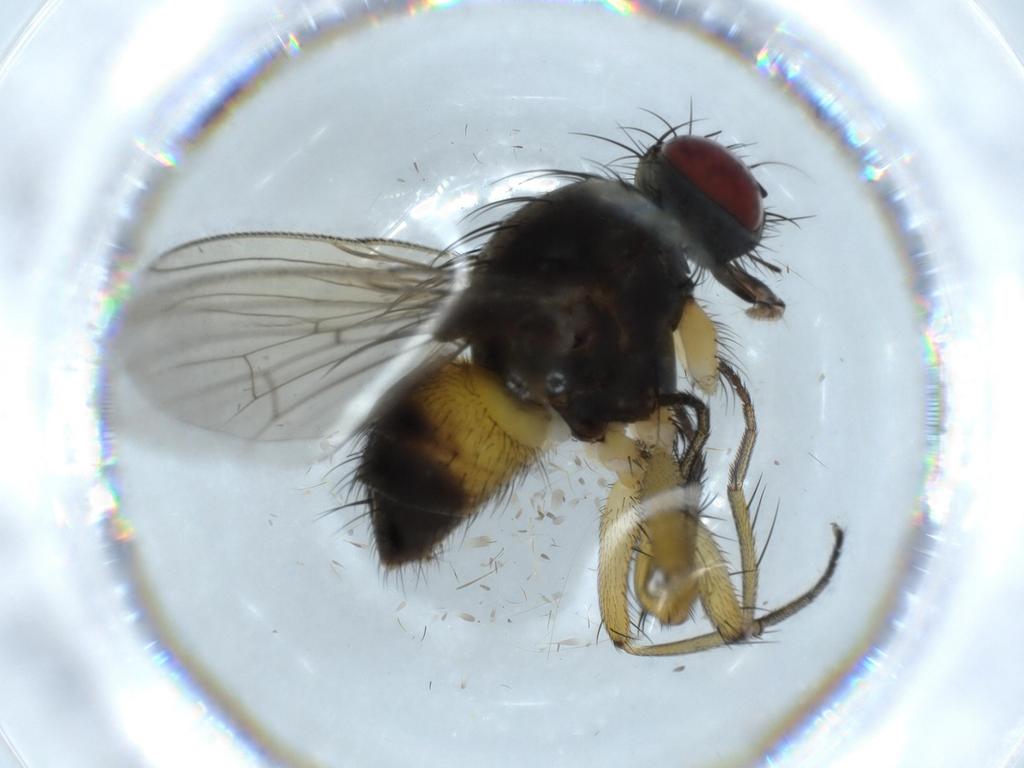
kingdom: Animalia
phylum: Arthropoda
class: Insecta
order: Diptera
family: Muscidae
